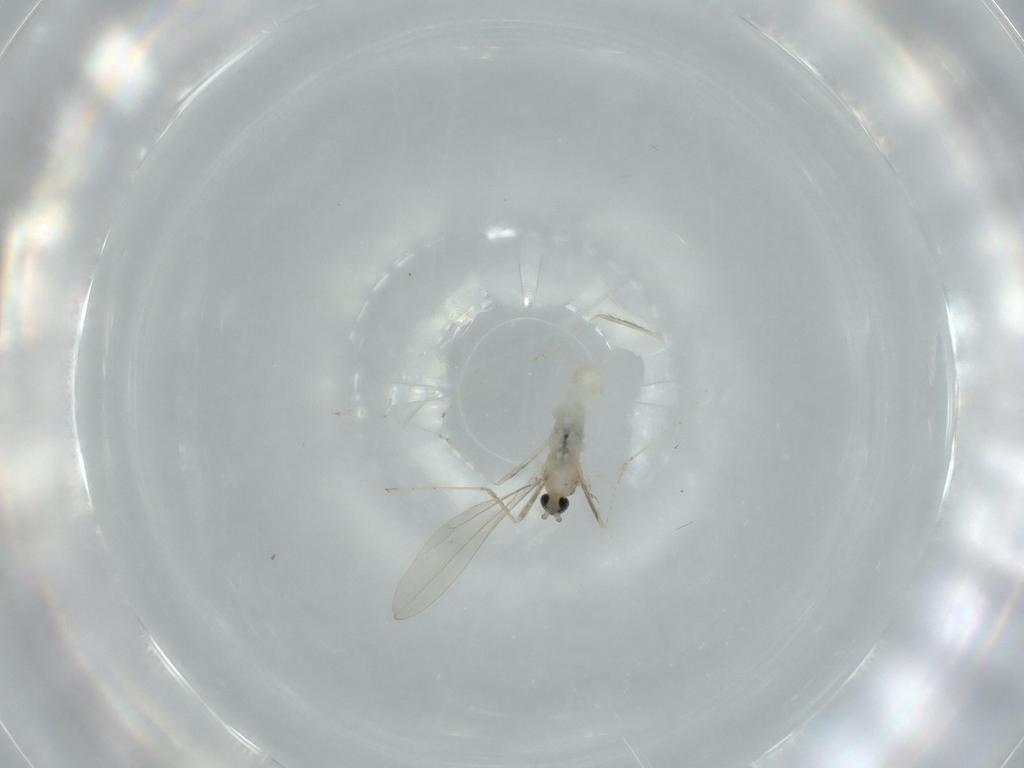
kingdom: Animalia
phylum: Arthropoda
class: Insecta
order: Diptera
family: Cecidomyiidae
